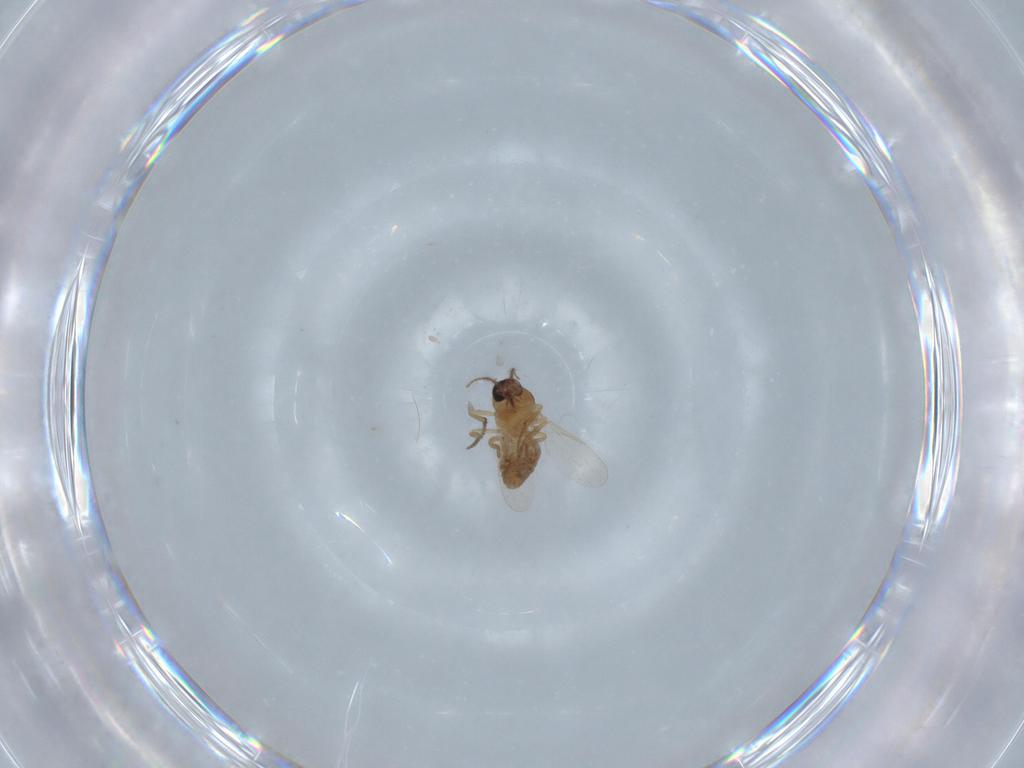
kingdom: Animalia
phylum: Arthropoda
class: Insecta
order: Diptera
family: Ceratopogonidae
